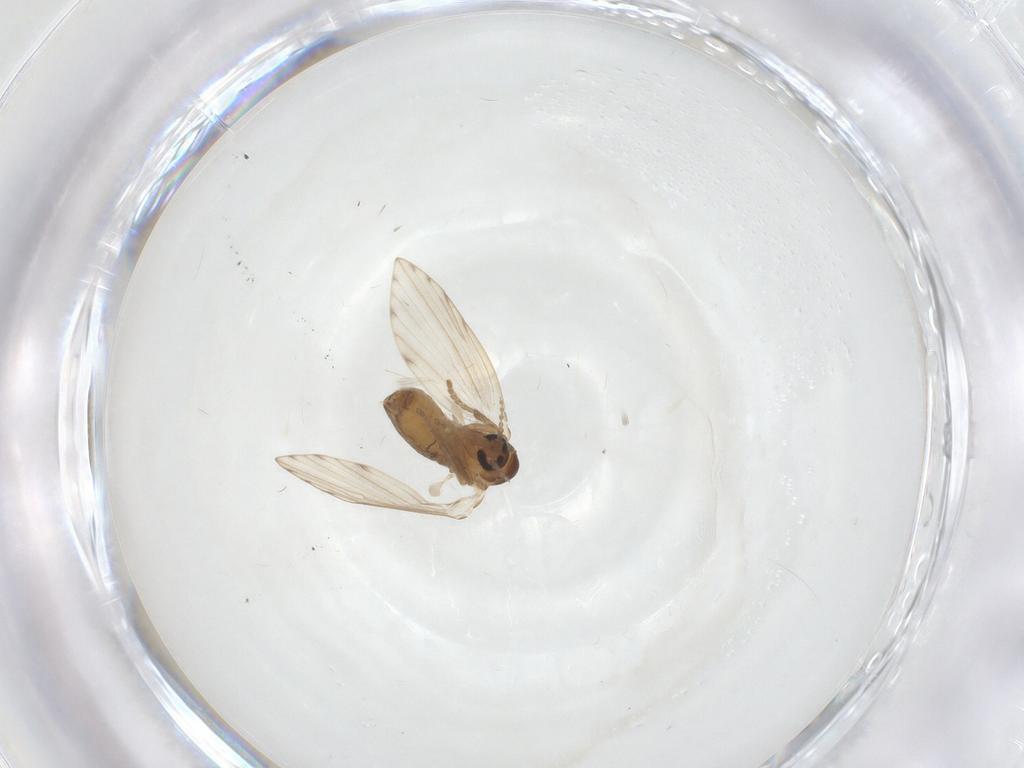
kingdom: Animalia
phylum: Arthropoda
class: Insecta
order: Diptera
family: Psychodidae
